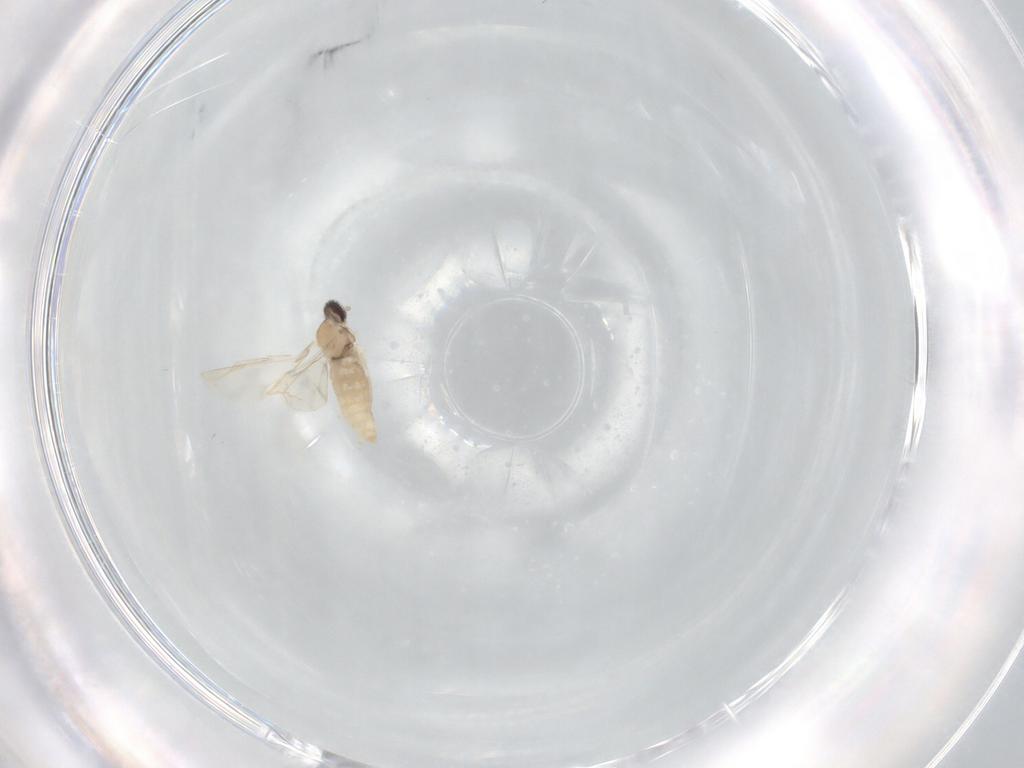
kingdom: Animalia
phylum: Arthropoda
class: Insecta
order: Diptera
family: Cecidomyiidae
